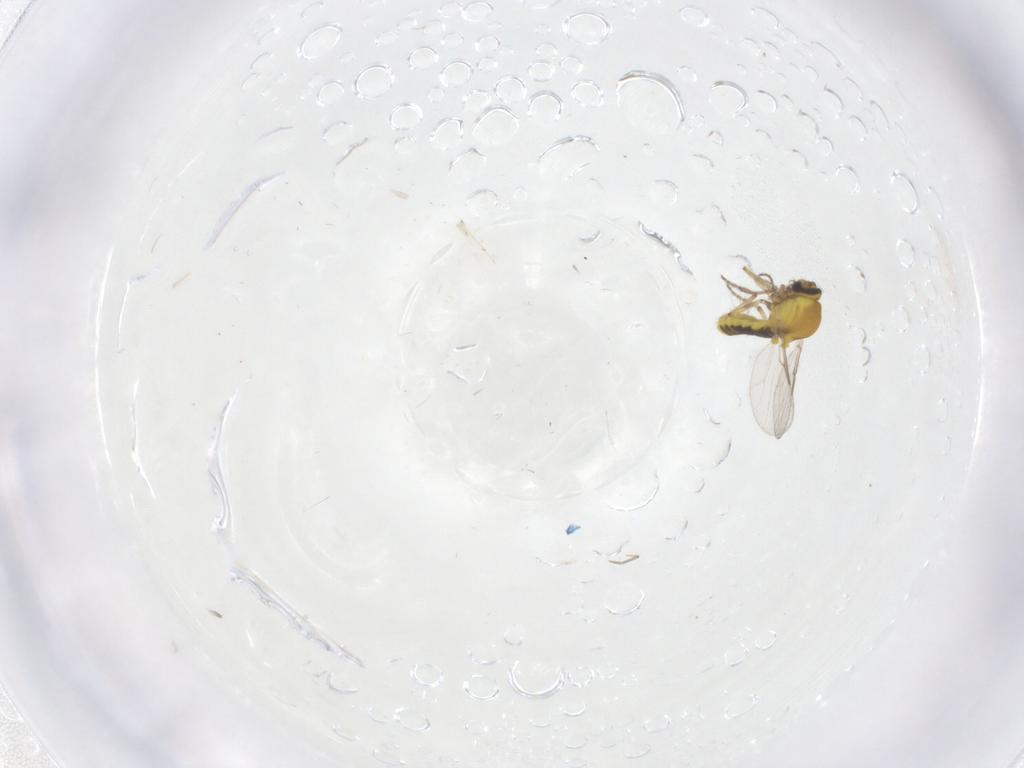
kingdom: Animalia
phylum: Arthropoda
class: Insecta
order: Diptera
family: Ceratopogonidae
